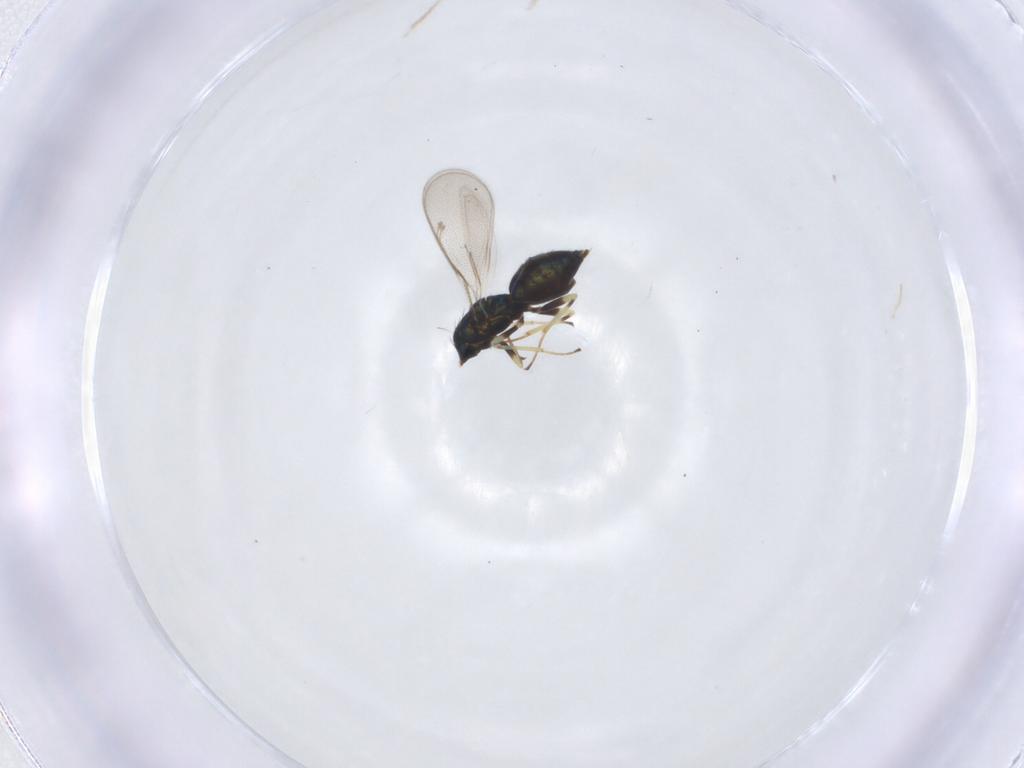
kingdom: Animalia
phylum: Arthropoda
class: Insecta
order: Hymenoptera
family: Eulophidae
